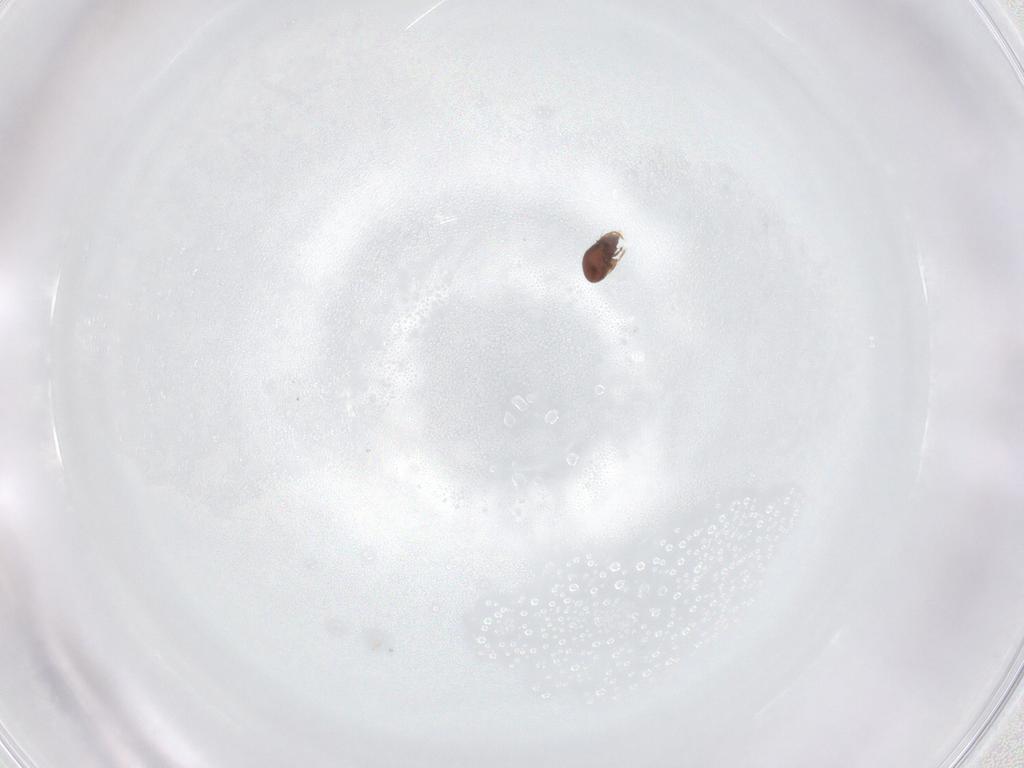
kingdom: Animalia
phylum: Arthropoda
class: Arachnida
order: Sarcoptiformes
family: Ceratozetidae
